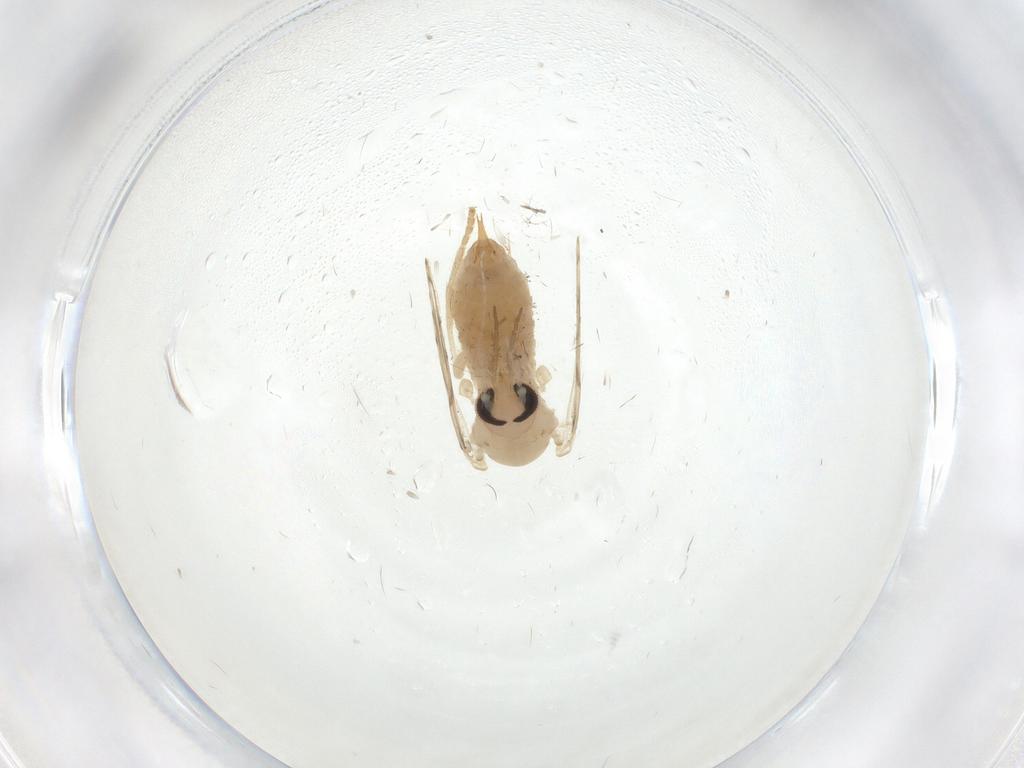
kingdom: Animalia
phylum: Arthropoda
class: Insecta
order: Diptera
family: Psychodidae
